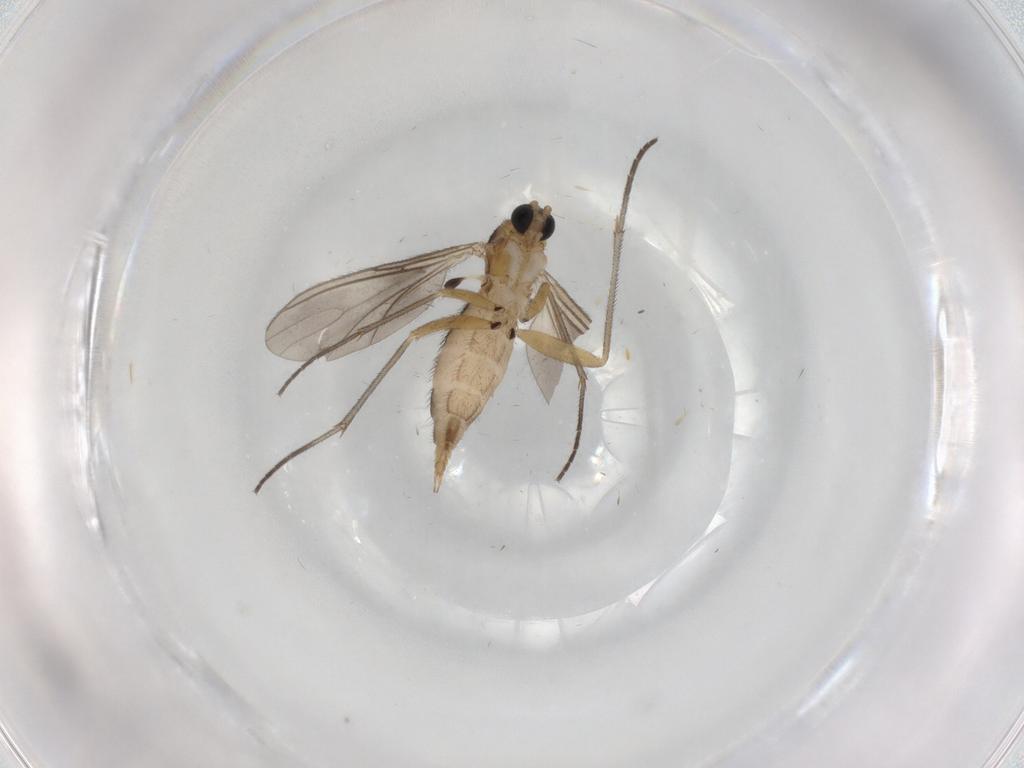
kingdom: Animalia
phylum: Arthropoda
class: Insecta
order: Diptera
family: Sciaridae
